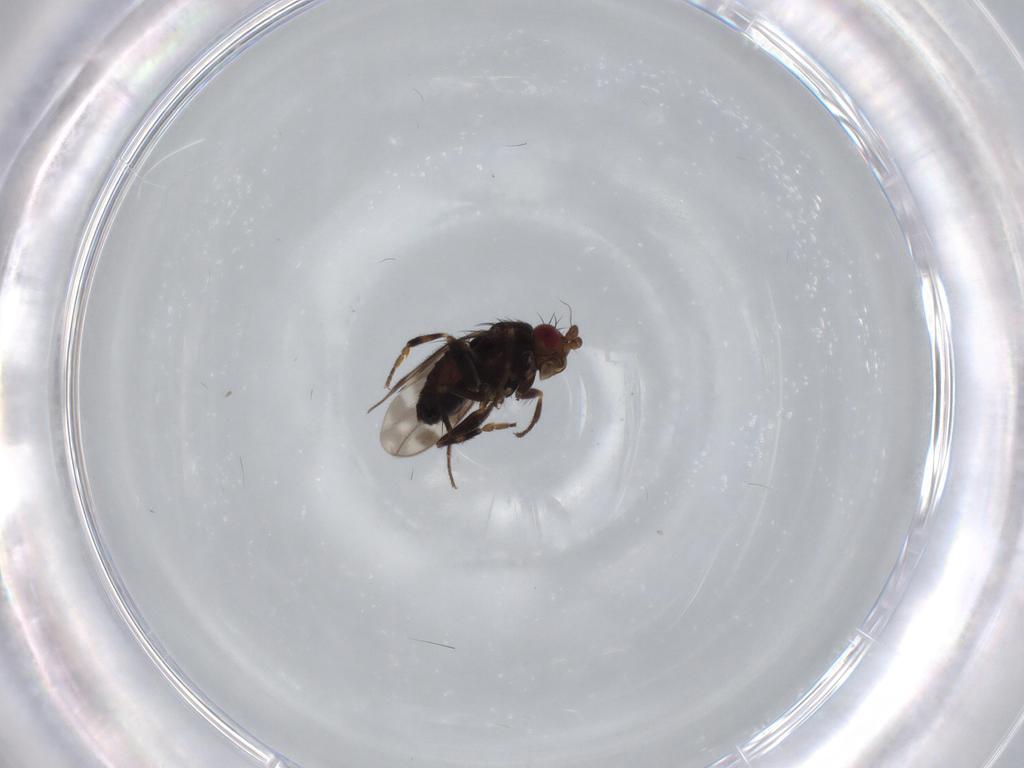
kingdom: Animalia
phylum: Arthropoda
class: Insecta
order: Diptera
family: Sphaeroceridae
